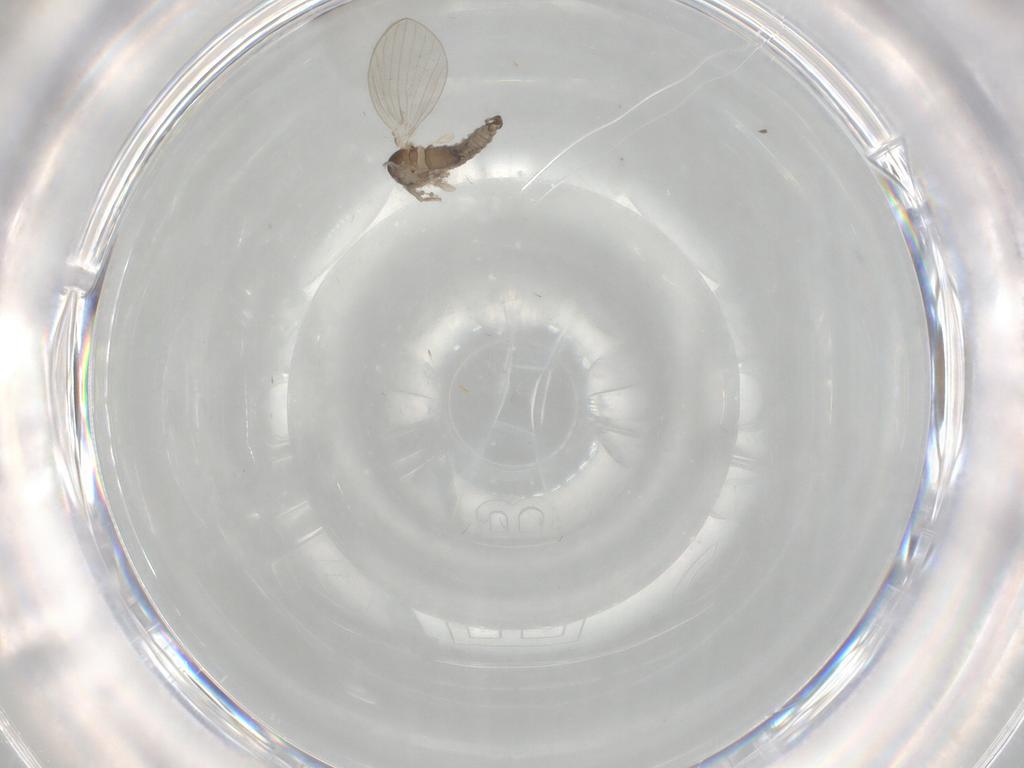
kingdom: Animalia
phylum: Arthropoda
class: Insecta
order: Diptera
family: Psychodidae
